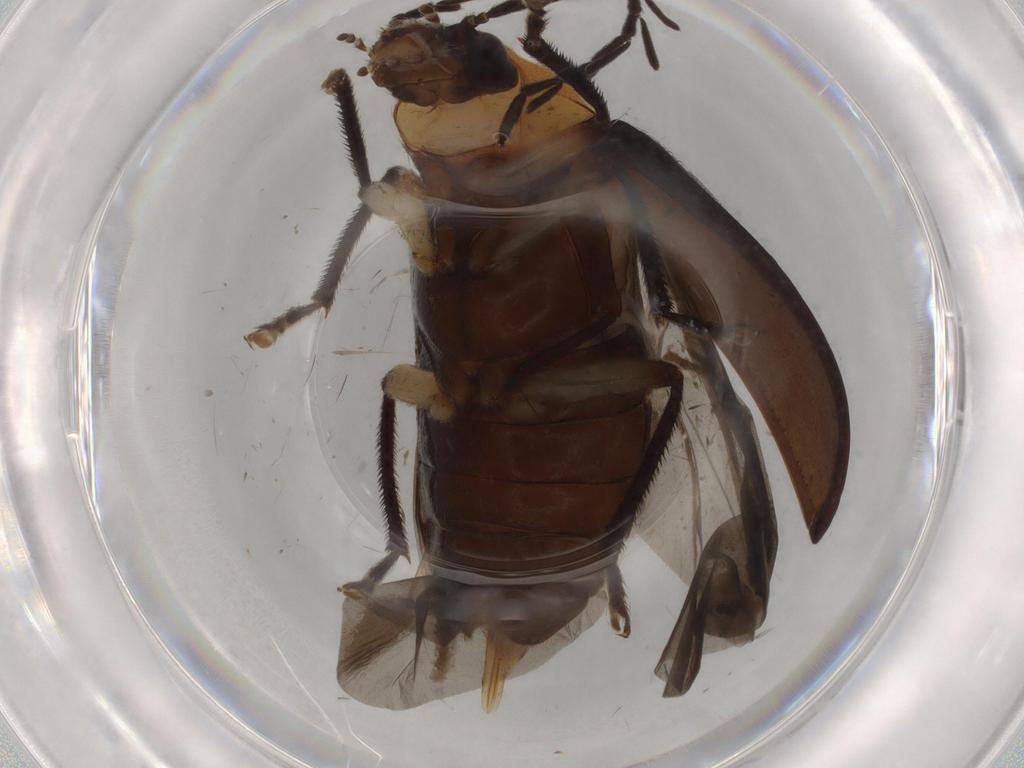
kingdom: Animalia
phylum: Arthropoda
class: Insecta
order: Coleoptera
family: Ptilodactylidae
